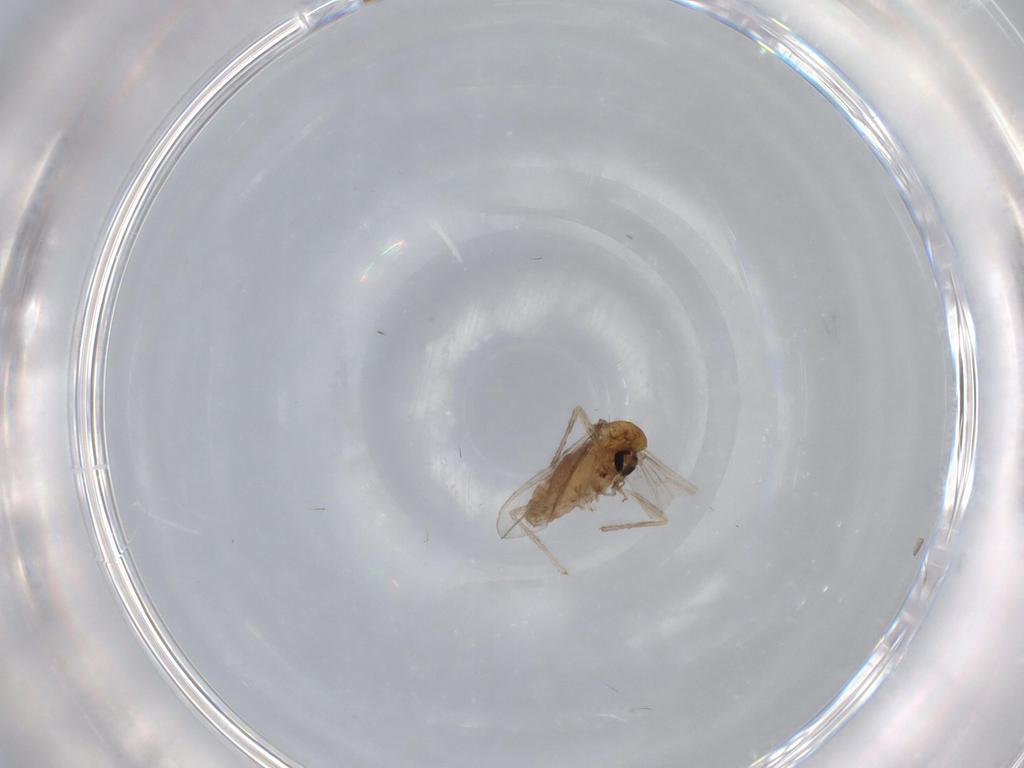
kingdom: Animalia
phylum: Arthropoda
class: Insecta
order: Diptera
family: Chironomidae
